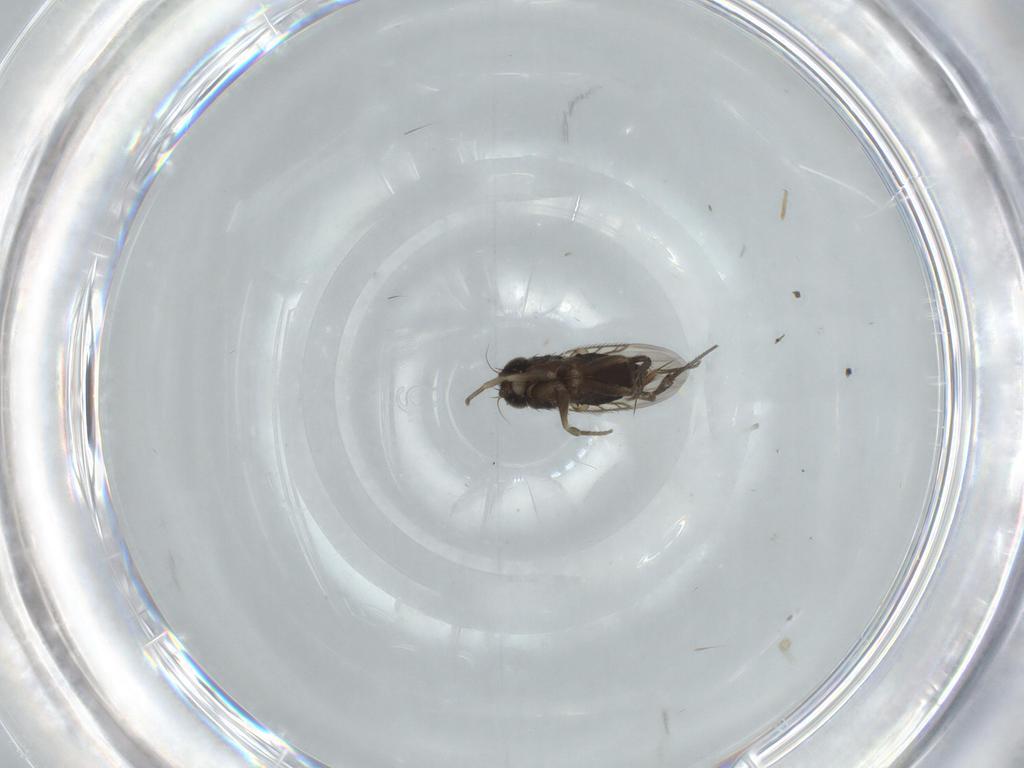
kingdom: Animalia
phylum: Arthropoda
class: Insecta
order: Diptera
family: Phoridae
